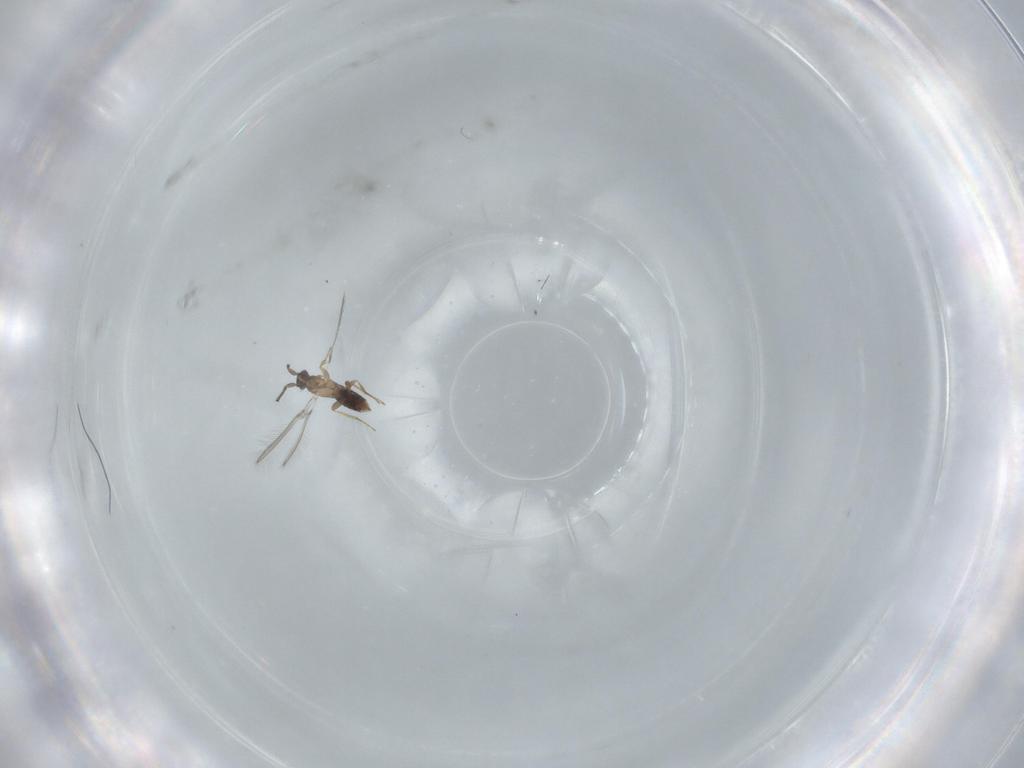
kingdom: Animalia
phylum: Arthropoda
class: Insecta
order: Hymenoptera
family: Mymaridae
